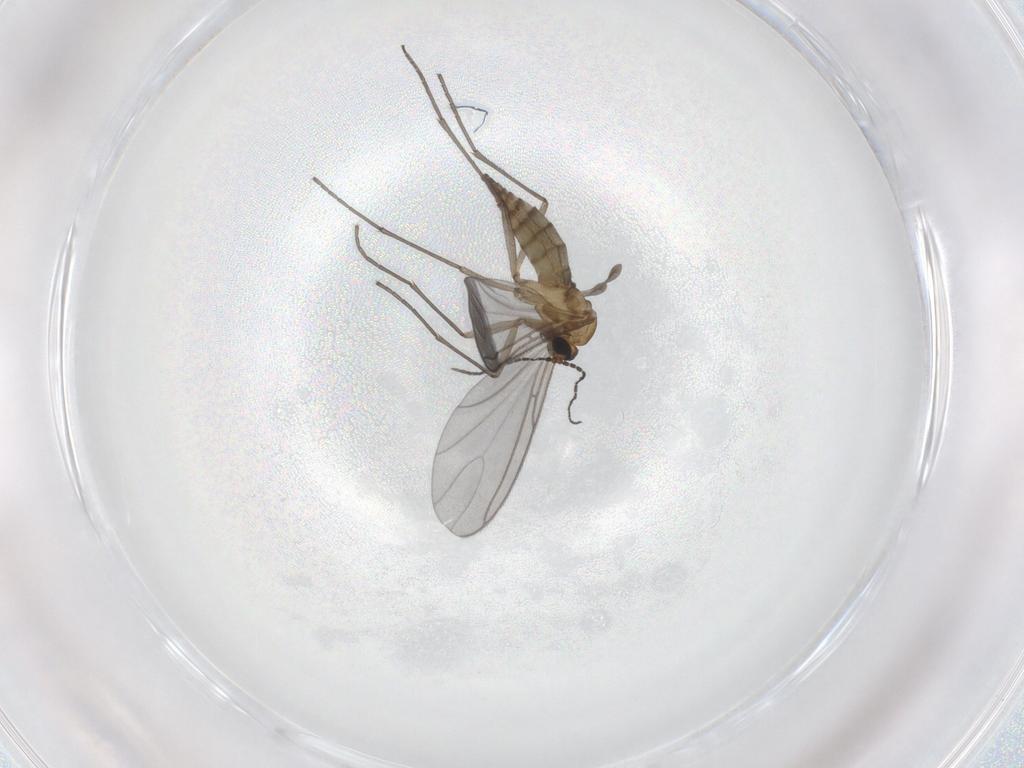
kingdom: Animalia
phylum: Arthropoda
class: Insecta
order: Diptera
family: Sciaridae
